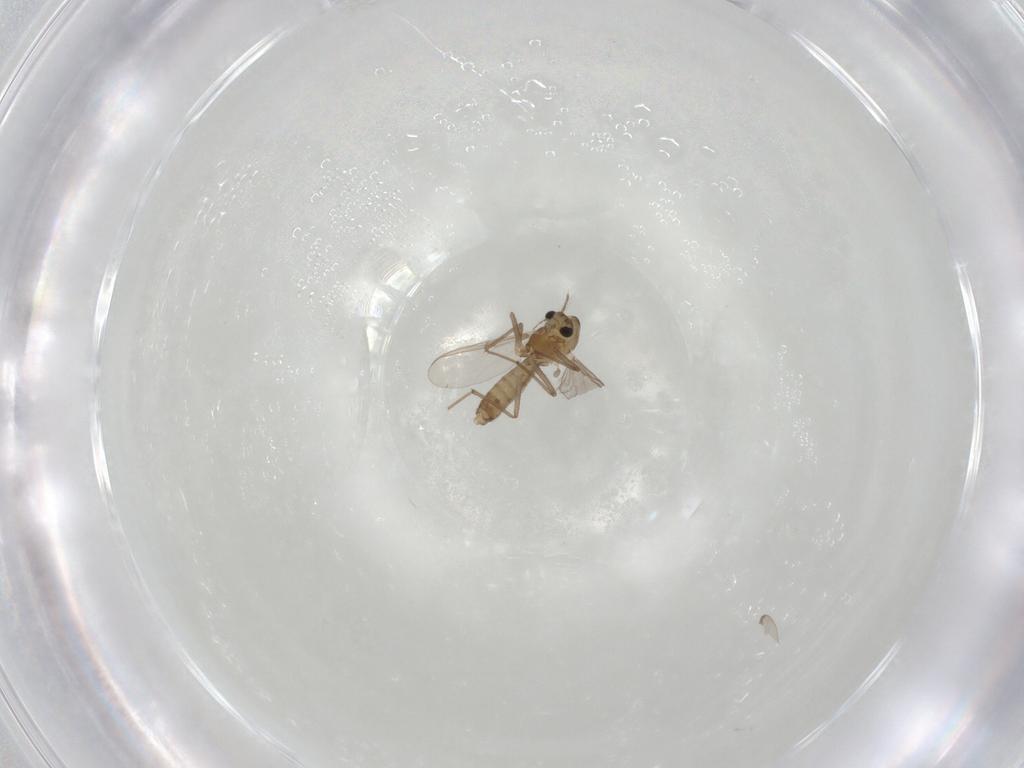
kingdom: Animalia
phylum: Arthropoda
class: Insecta
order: Diptera
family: Chironomidae
